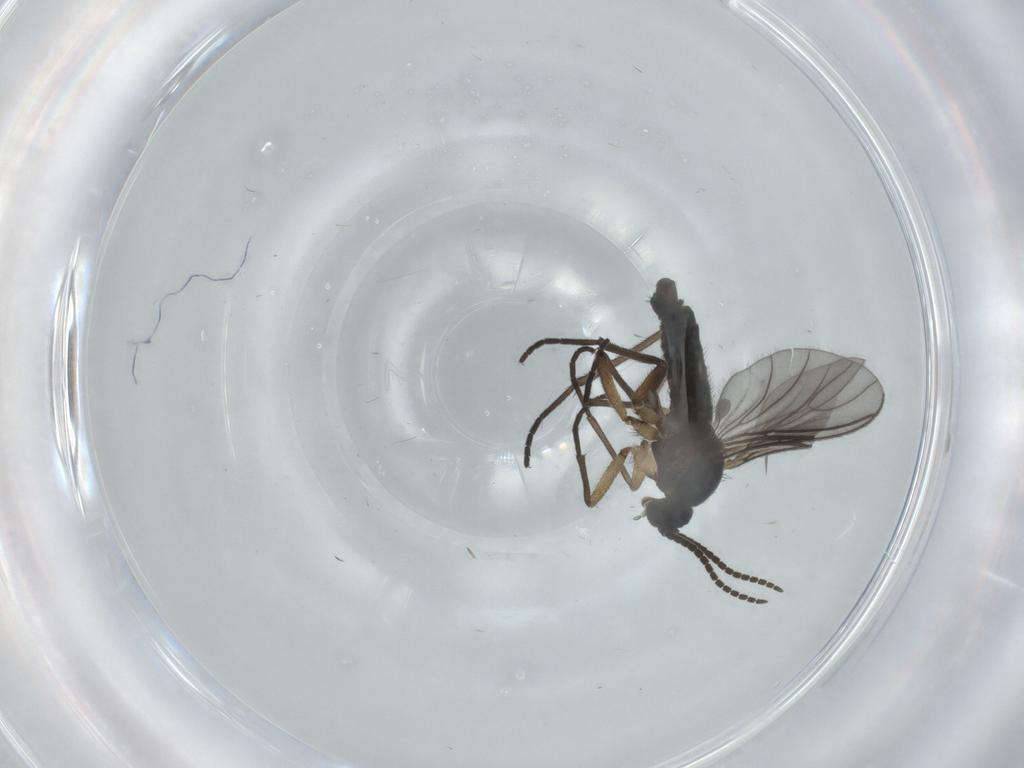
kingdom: Animalia
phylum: Arthropoda
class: Insecta
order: Diptera
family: Sciaridae
